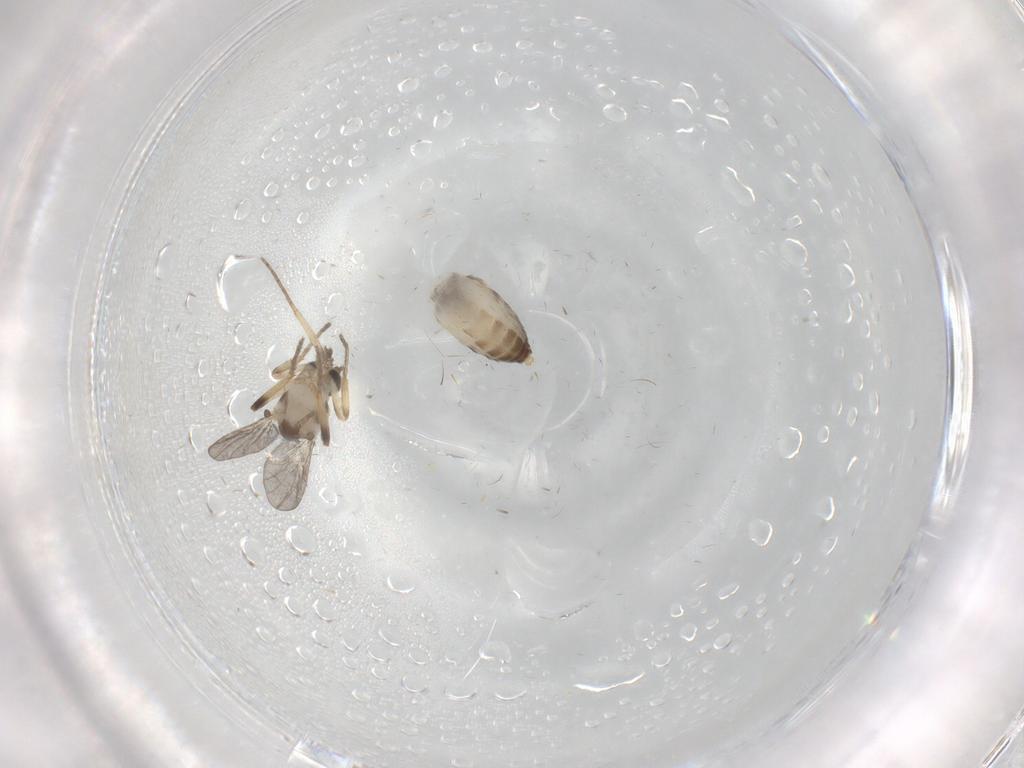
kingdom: Animalia
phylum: Arthropoda
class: Insecta
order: Diptera
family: Ceratopogonidae
